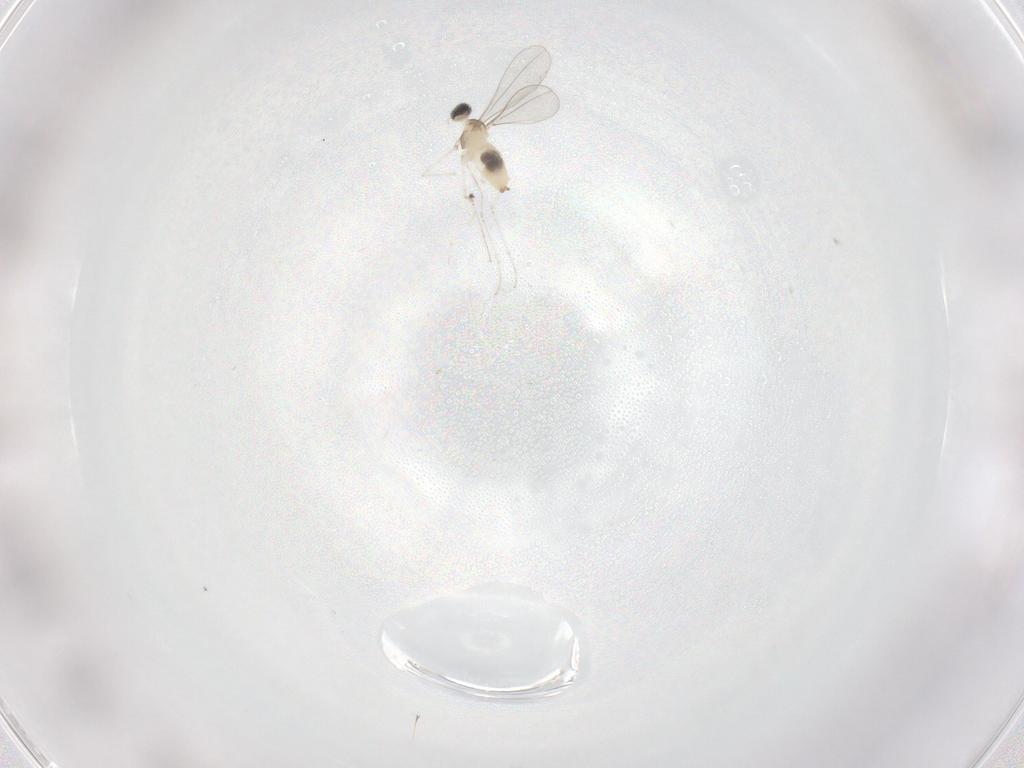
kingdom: Animalia
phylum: Arthropoda
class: Insecta
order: Diptera
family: Cecidomyiidae
